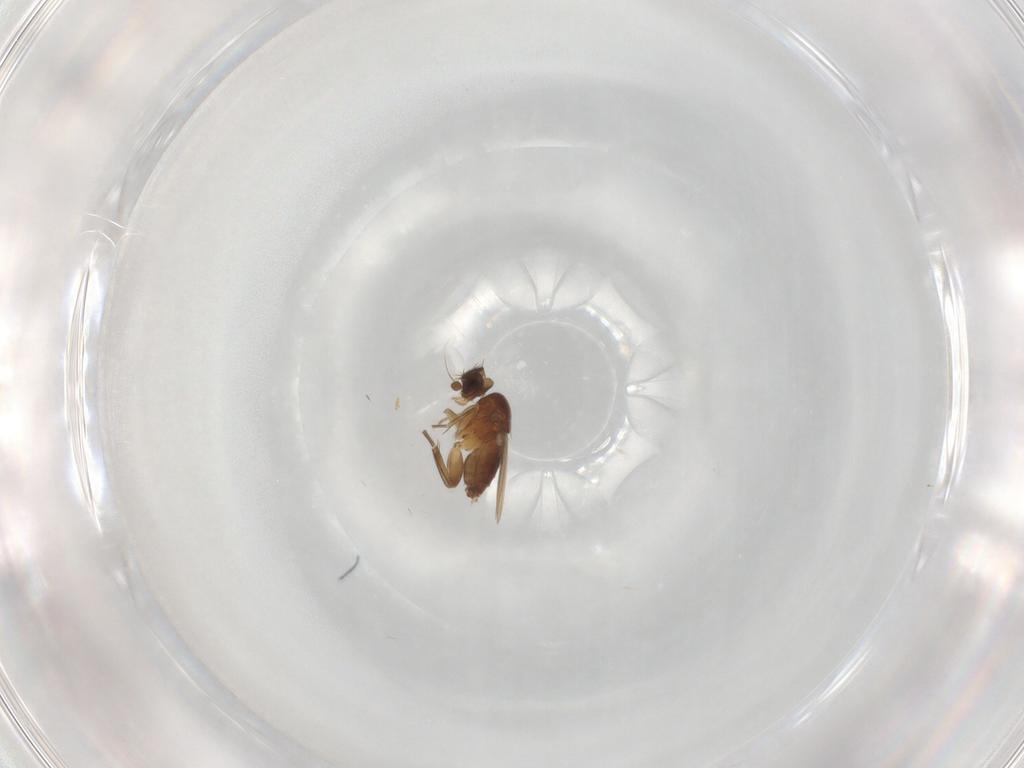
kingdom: Animalia
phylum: Arthropoda
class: Insecta
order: Diptera
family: Phoridae
